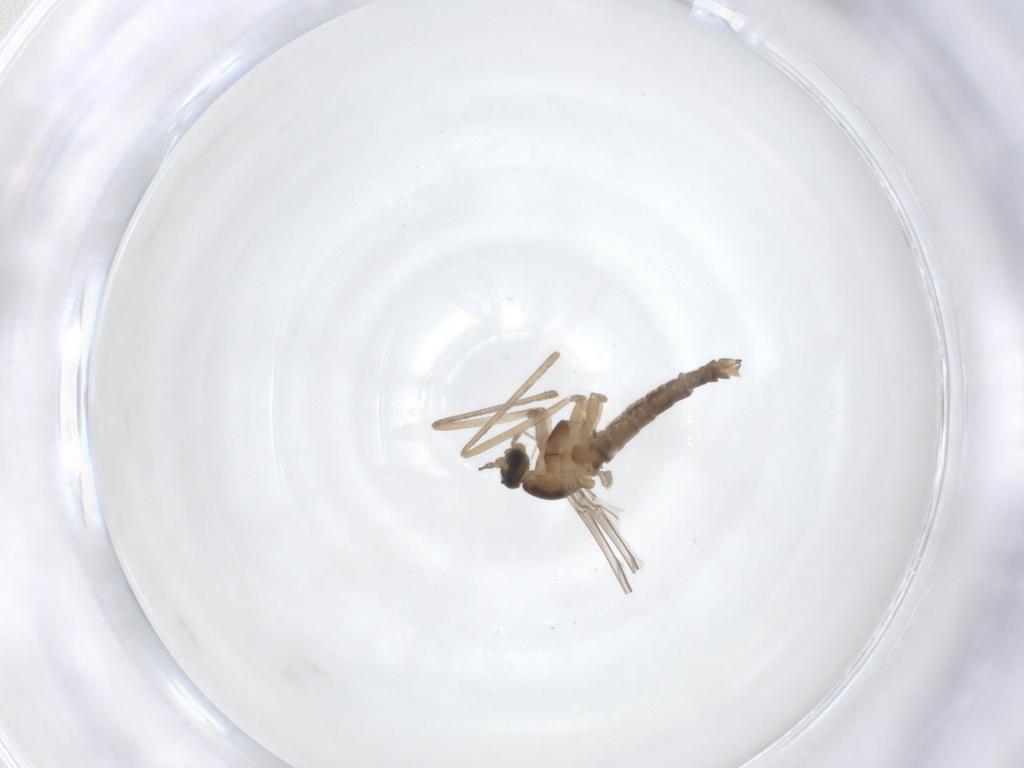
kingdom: Animalia
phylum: Arthropoda
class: Insecta
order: Diptera
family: Cecidomyiidae
